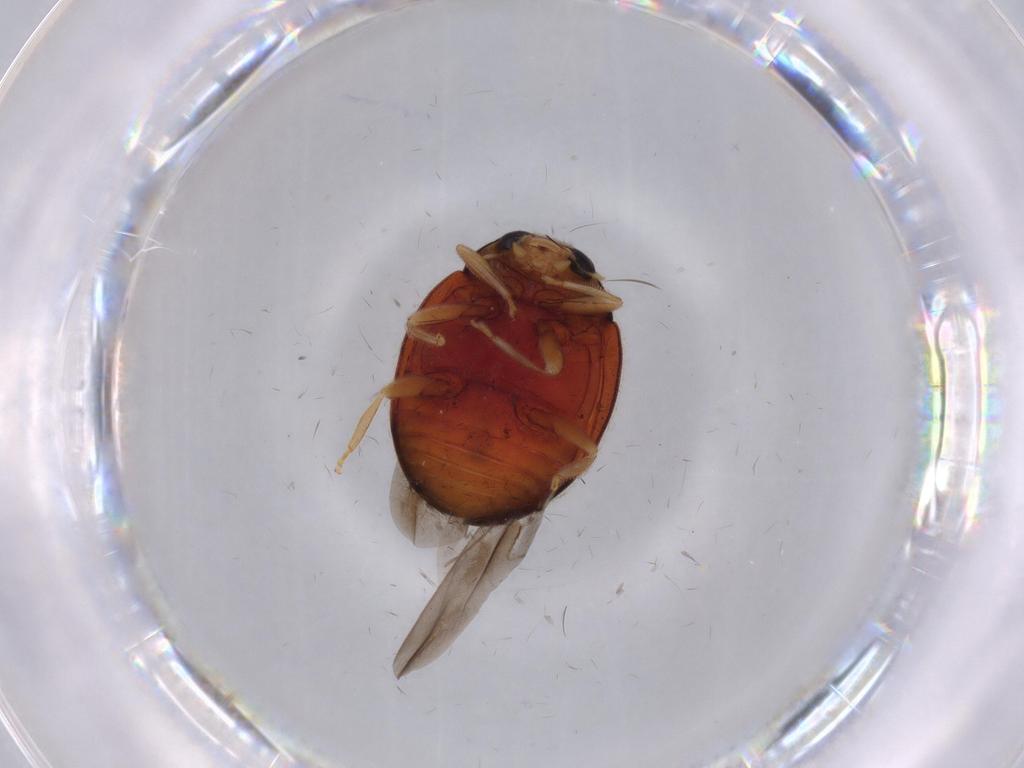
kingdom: Animalia
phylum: Arthropoda
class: Insecta
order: Coleoptera
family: Coccinellidae
